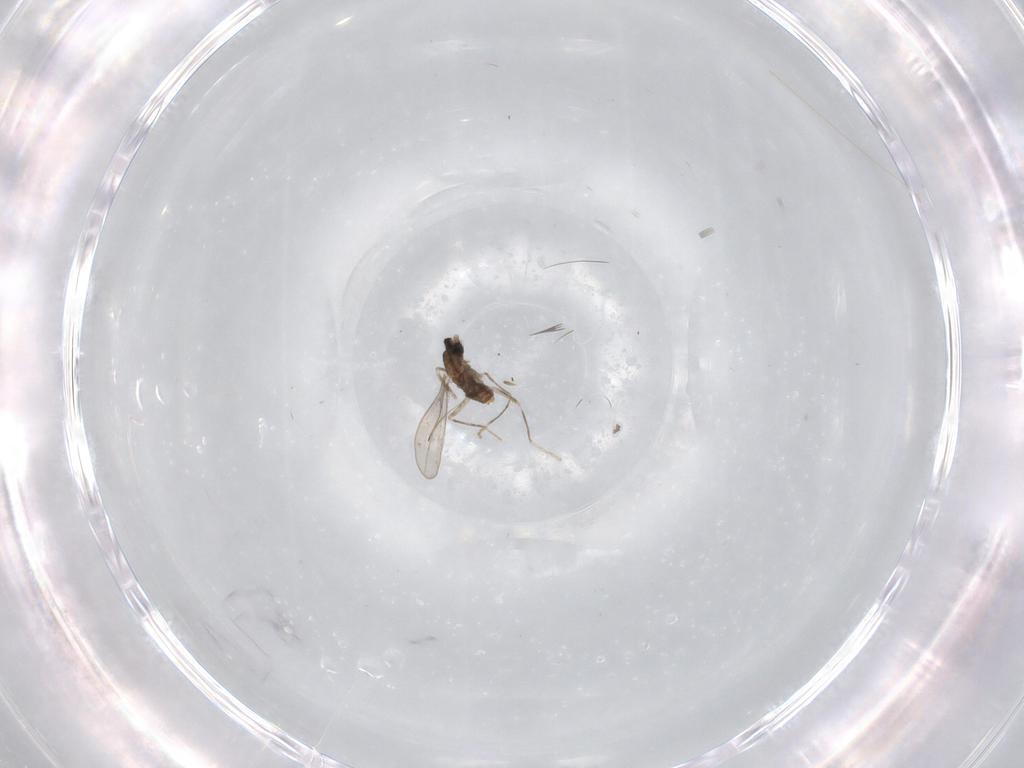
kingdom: Animalia
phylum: Arthropoda
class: Insecta
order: Diptera
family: Cecidomyiidae
